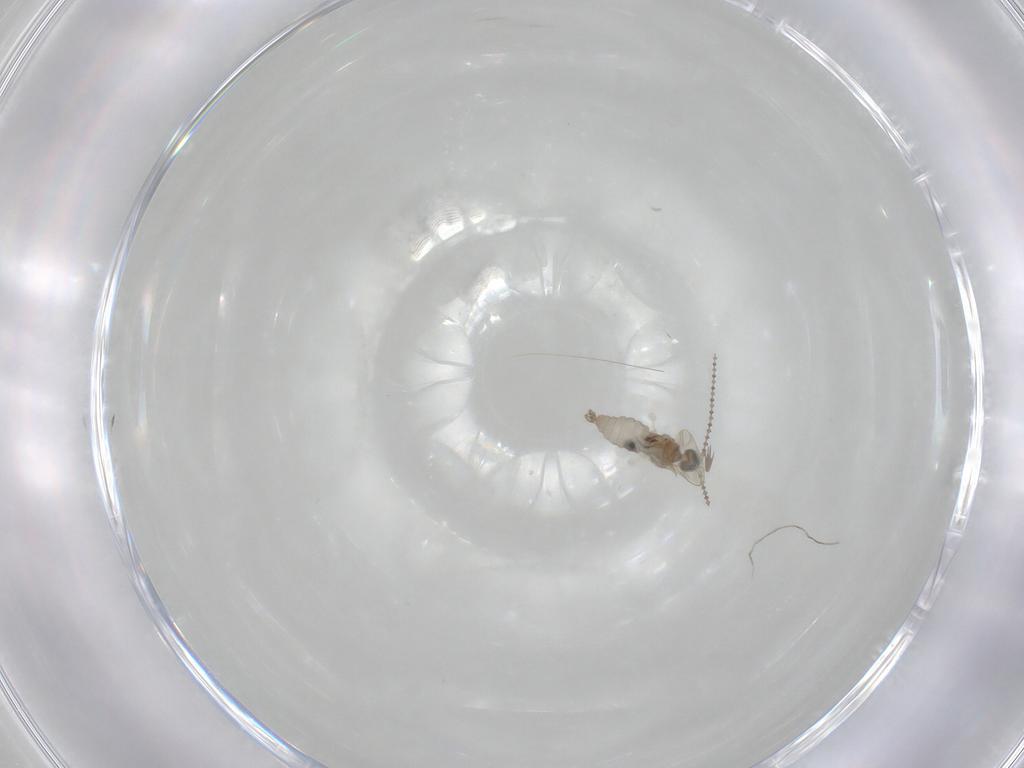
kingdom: Animalia
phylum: Arthropoda
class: Insecta
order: Diptera
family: Cecidomyiidae
